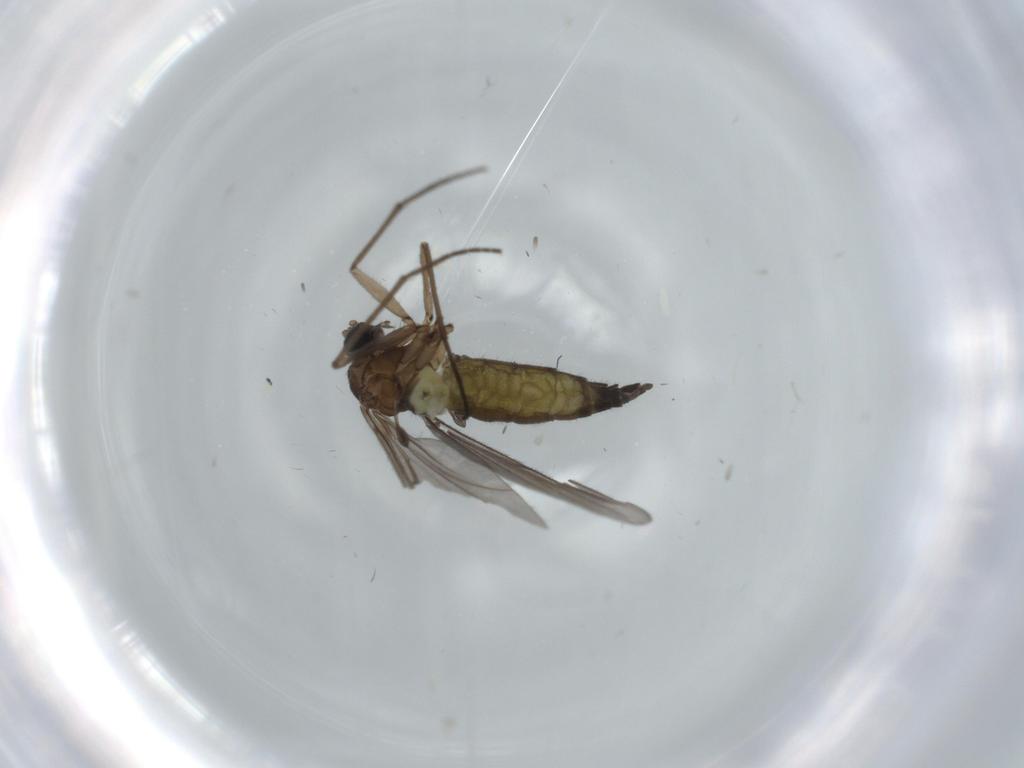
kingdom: Animalia
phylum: Arthropoda
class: Insecta
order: Diptera
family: Sciaridae
